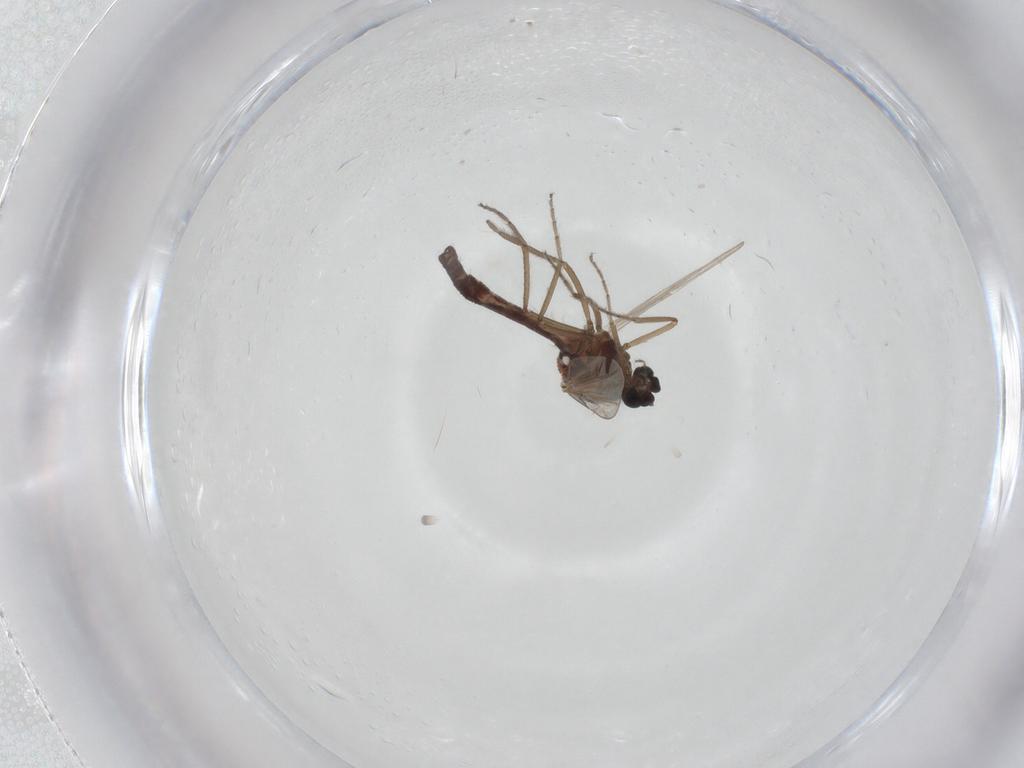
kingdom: Animalia
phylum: Arthropoda
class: Insecta
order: Diptera
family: Ceratopogonidae
